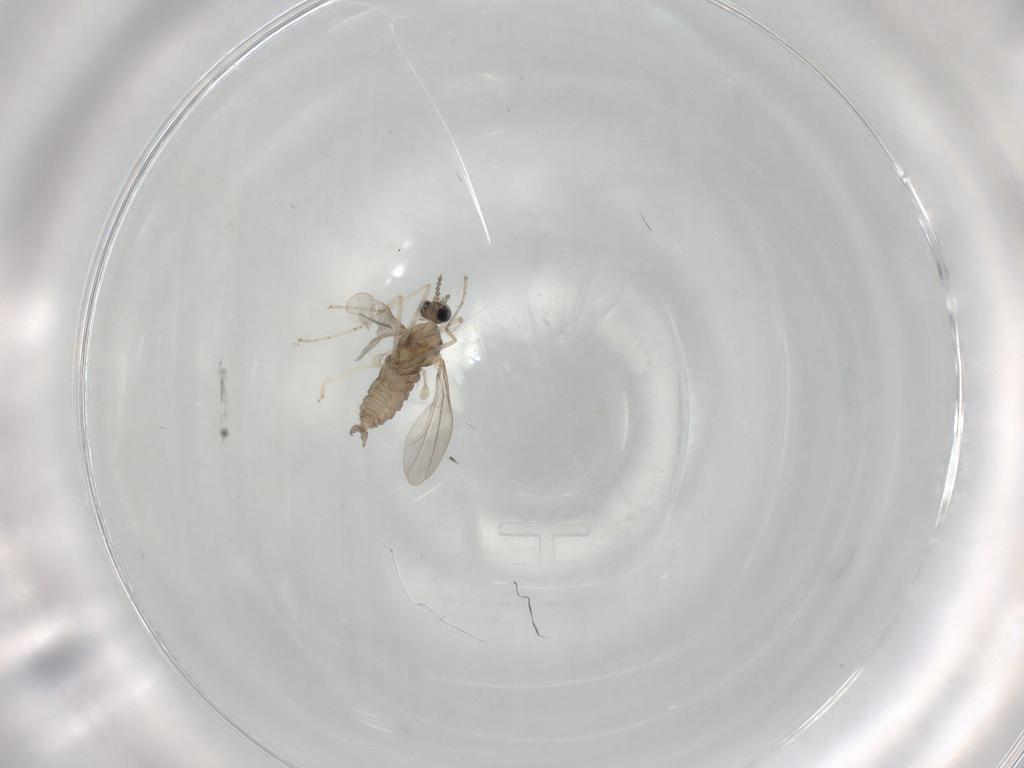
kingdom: Animalia
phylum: Arthropoda
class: Insecta
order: Diptera
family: Cecidomyiidae
